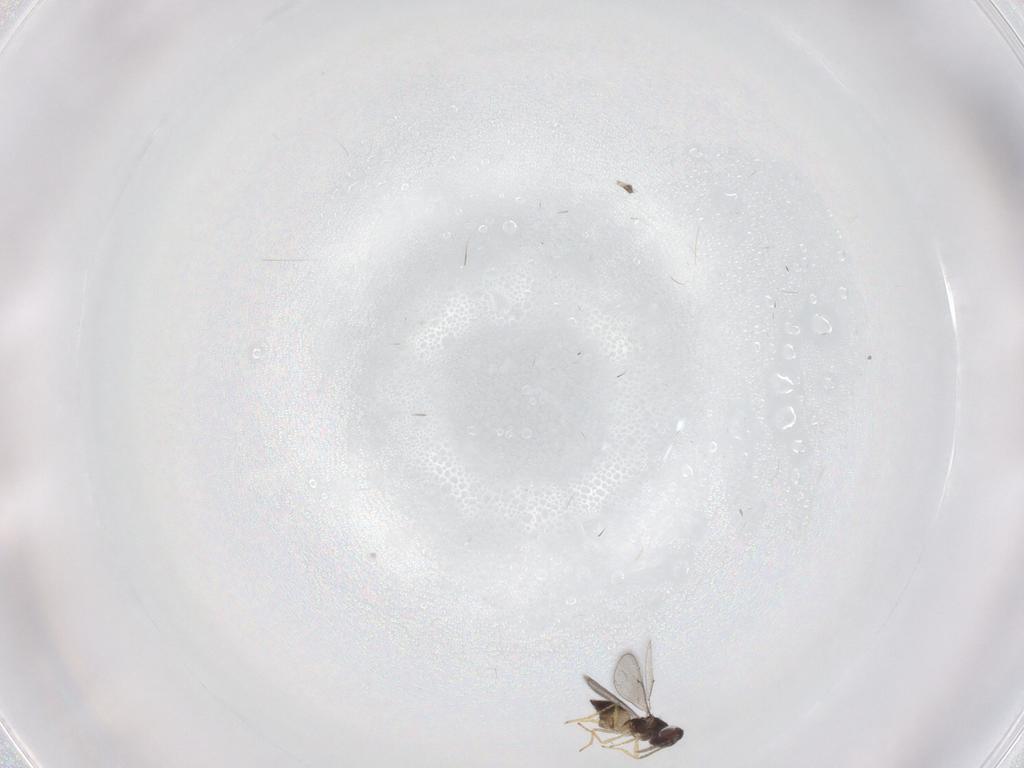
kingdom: Animalia
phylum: Arthropoda
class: Insecta
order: Hymenoptera
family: Eulophidae
